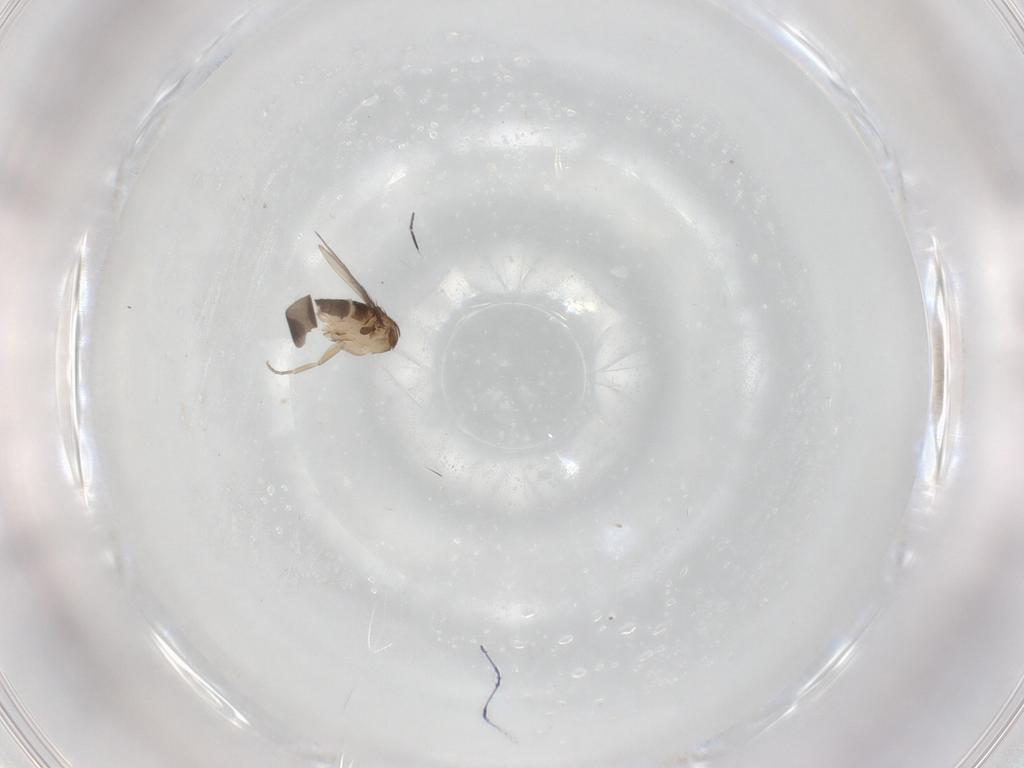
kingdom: Animalia
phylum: Arthropoda
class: Insecta
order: Diptera
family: Phoridae
